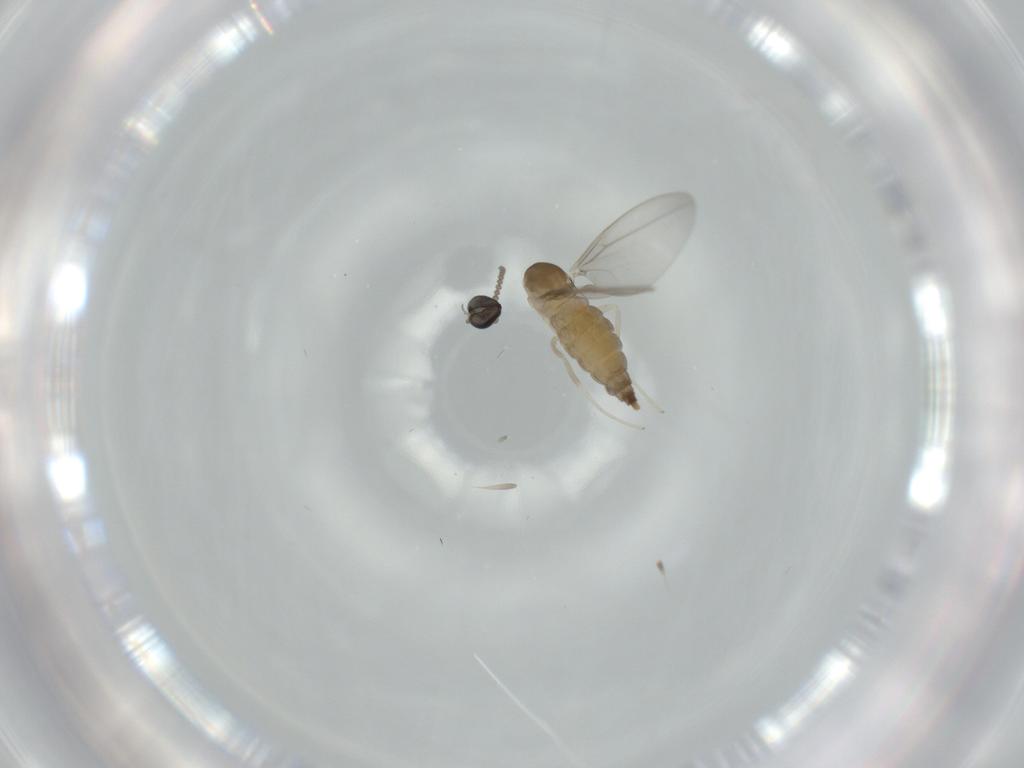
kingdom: Animalia
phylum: Arthropoda
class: Insecta
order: Diptera
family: Cecidomyiidae
